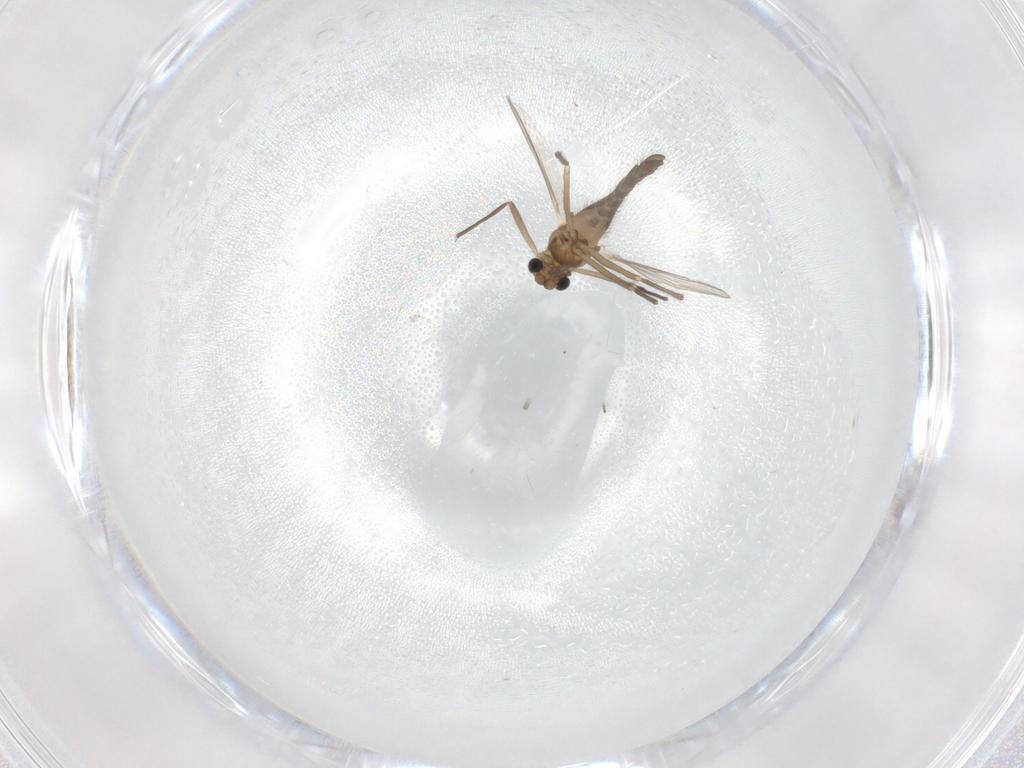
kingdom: Animalia
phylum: Arthropoda
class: Insecta
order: Diptera
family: Chironomidae
